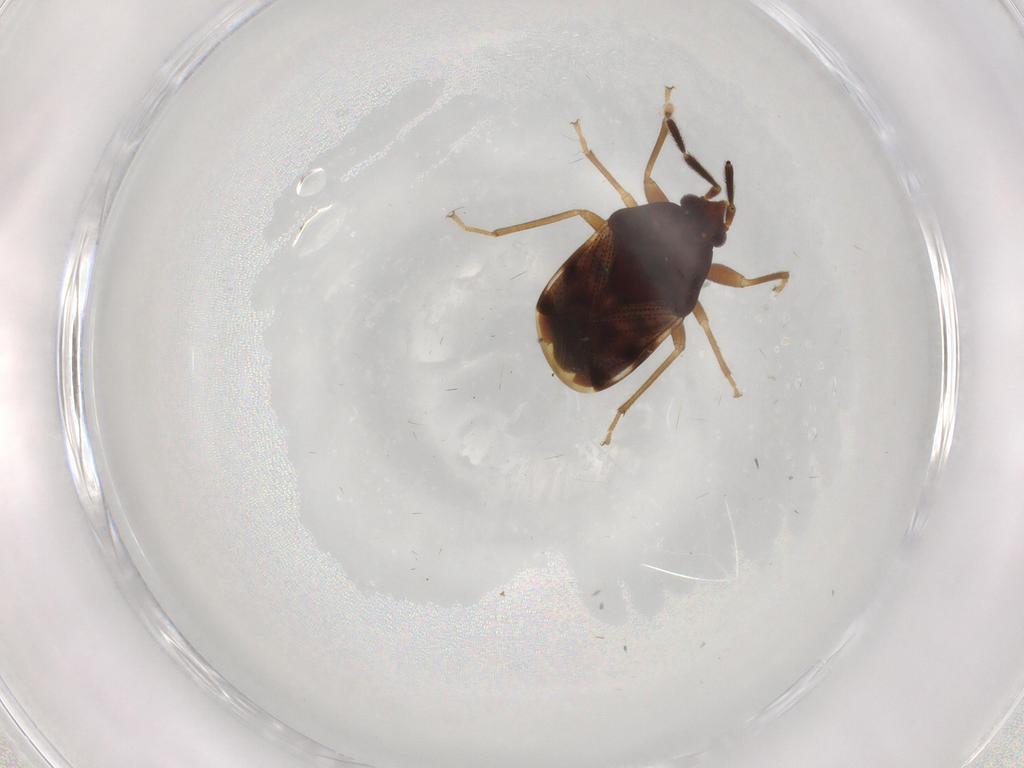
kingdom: Animalia
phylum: Arthropoda
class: Insecta
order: Hemiptera
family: Rhyparochromidae
